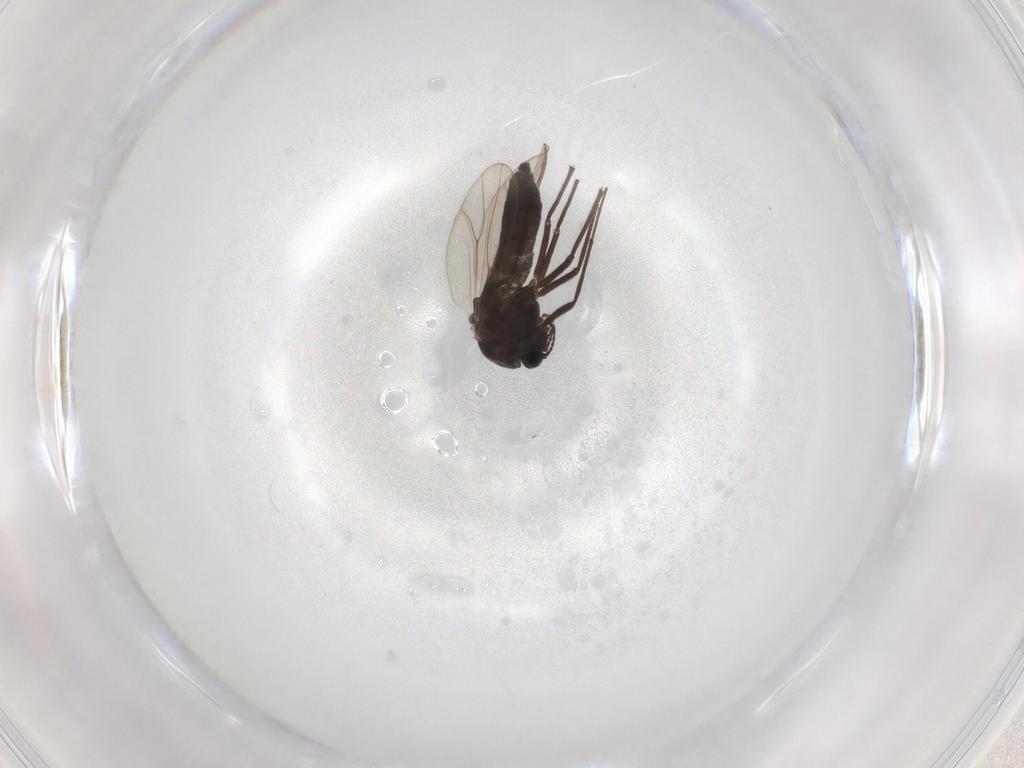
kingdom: Animalia
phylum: Arthropoda
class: Insecta
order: Diptera
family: Chironomidae
